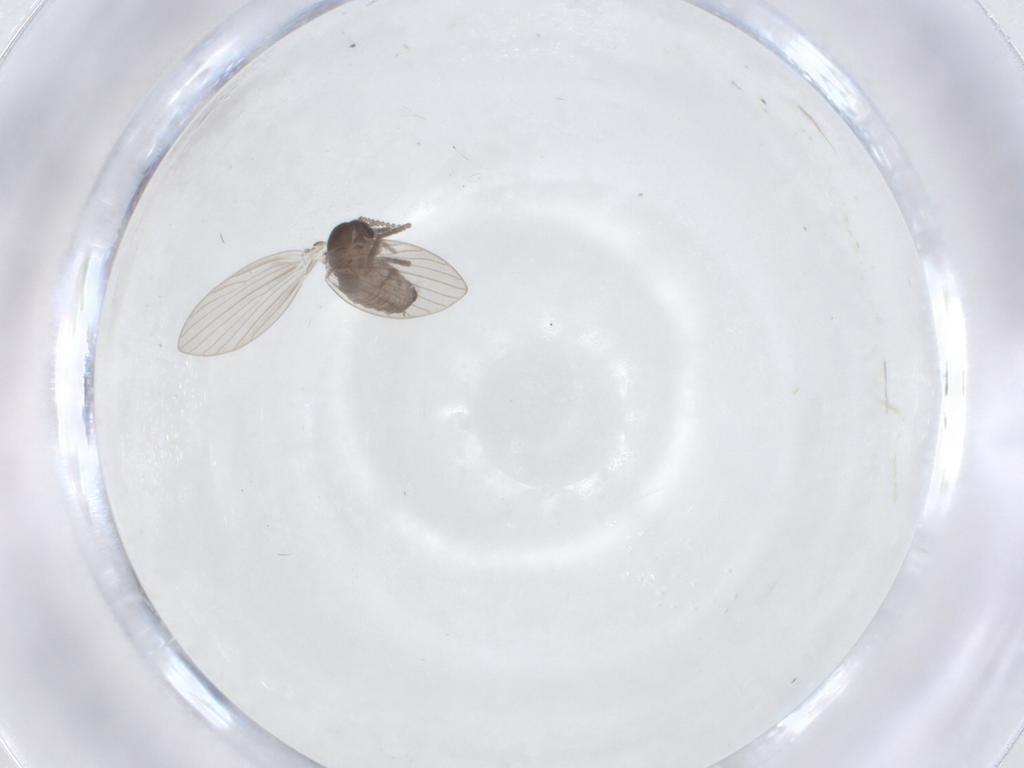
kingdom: Animalia
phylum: Arthropoda
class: Insecta
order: Diptera
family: Psychodidae
